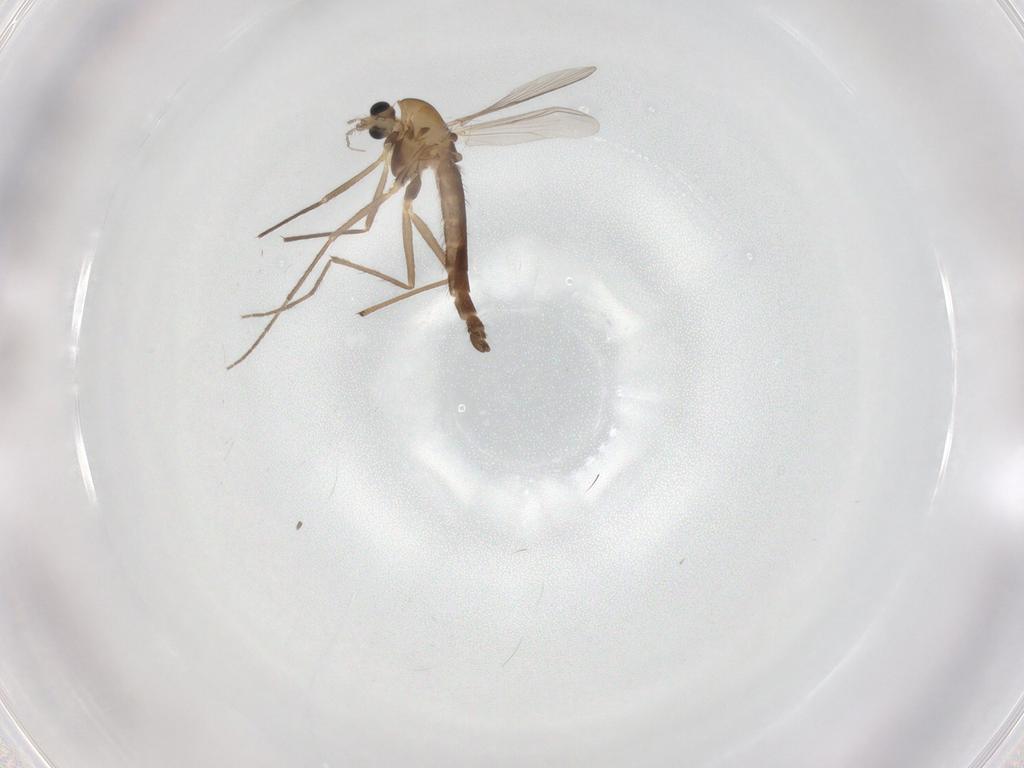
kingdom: Animalia
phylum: Arthropoda
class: Insecta
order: Diptera
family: Chironomidae
